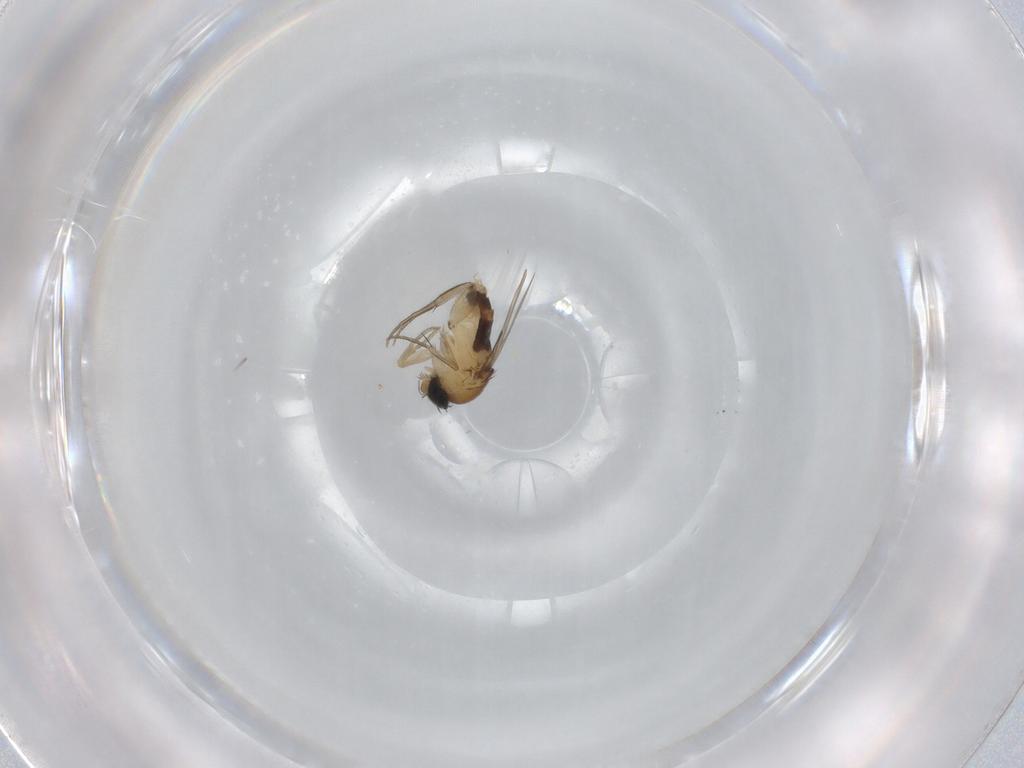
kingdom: Animalia
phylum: Arthropoda
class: Insecta
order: Diptera
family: Phoridae
